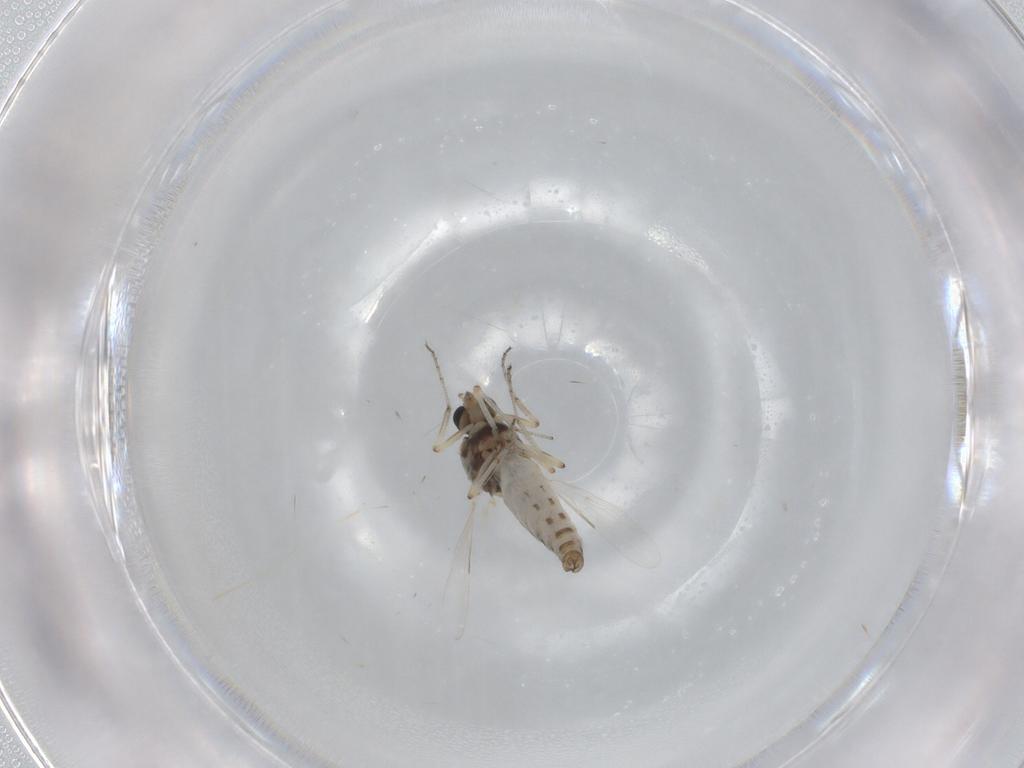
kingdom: Animalia
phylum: Arthropoda
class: Insecta
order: Diptera
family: Ceratopogonidae
